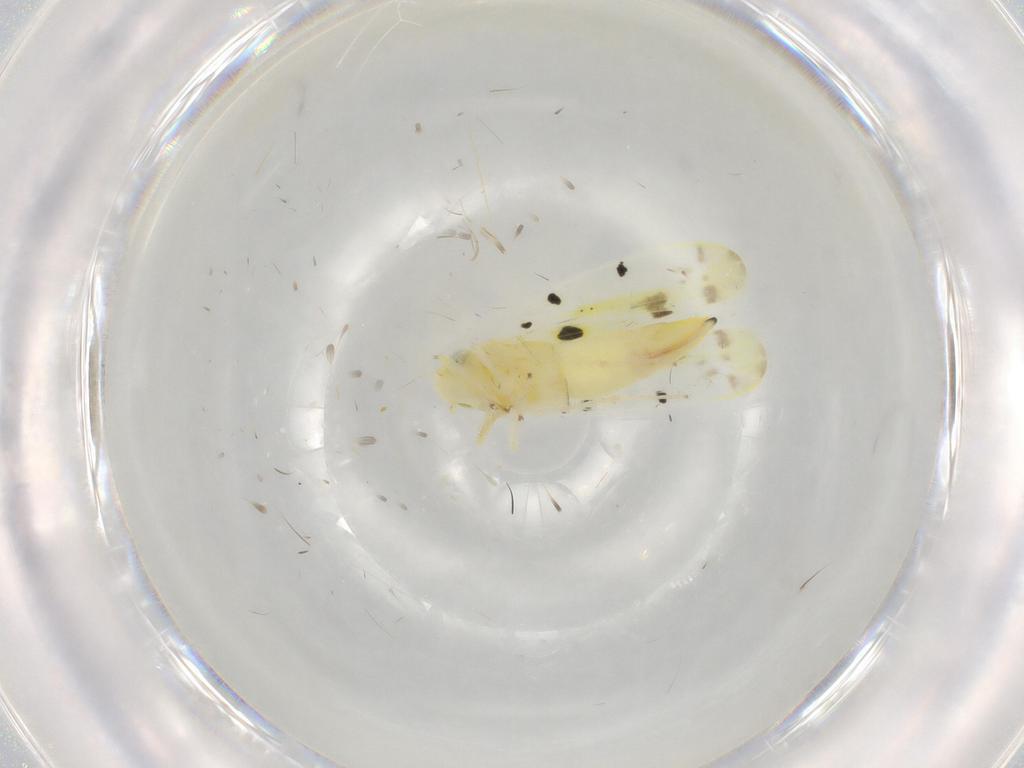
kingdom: Animalia
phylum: Arthropoda
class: Insecta
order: Hemiptera
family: Cicadellidae
